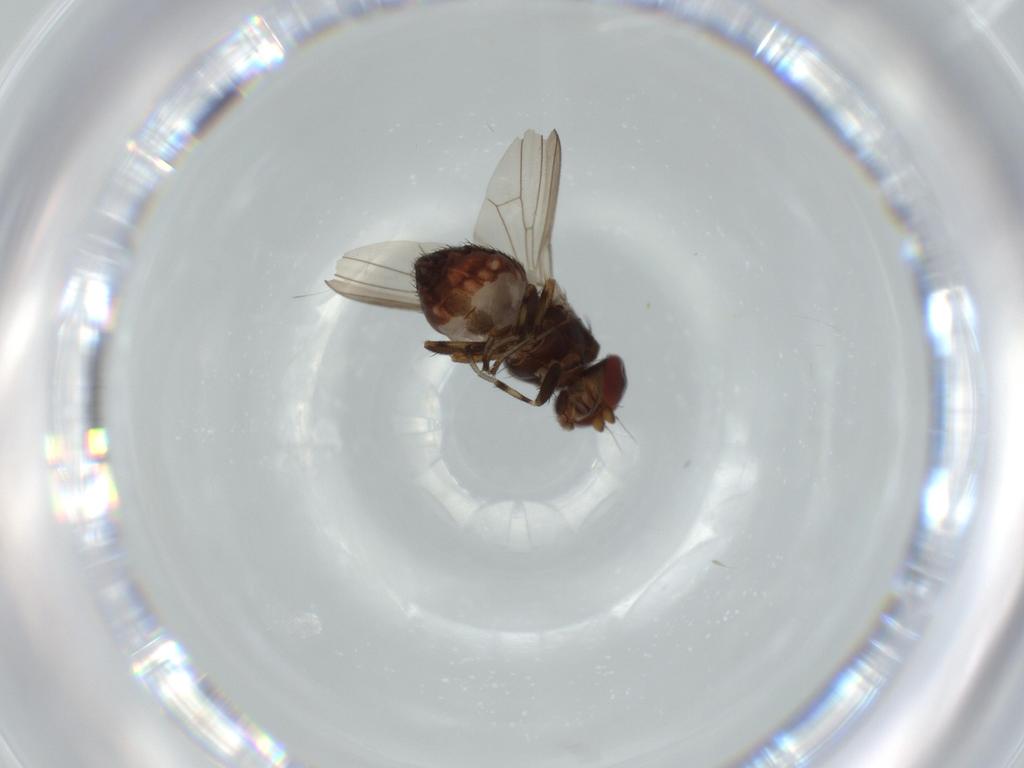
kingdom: Animalia
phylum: Arthropoda
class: Insecta
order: Diptera
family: Heleomyzidae
